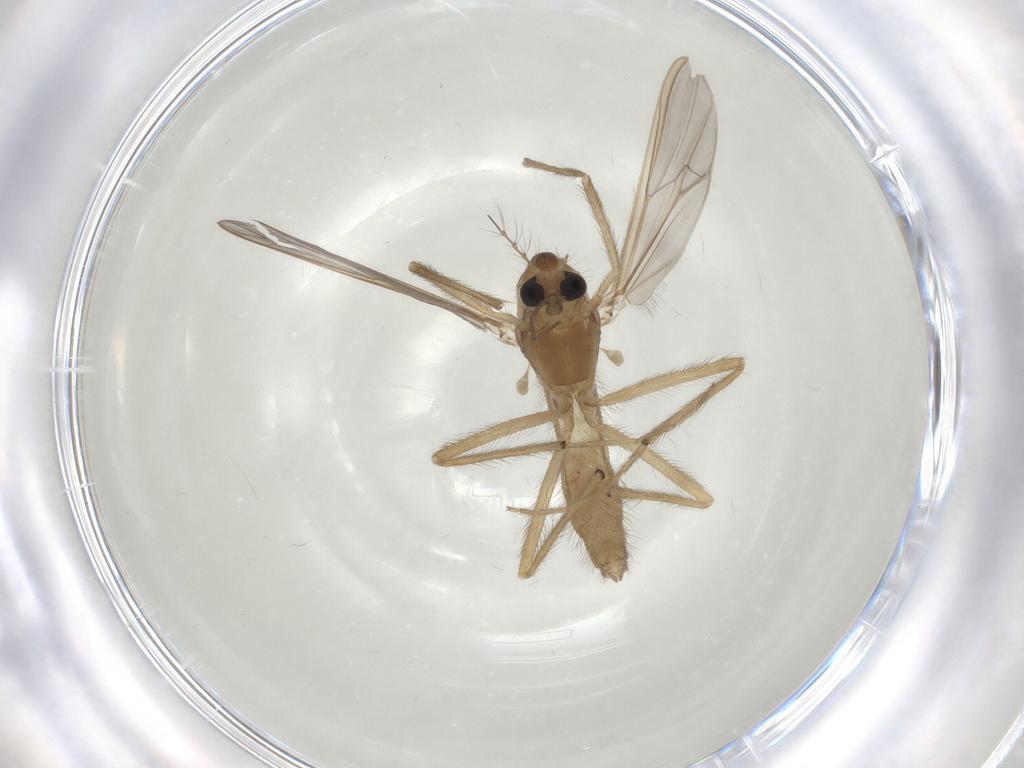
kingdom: Animalia
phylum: Arthropoda
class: Insecta
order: Diptera
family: Chironomidae
